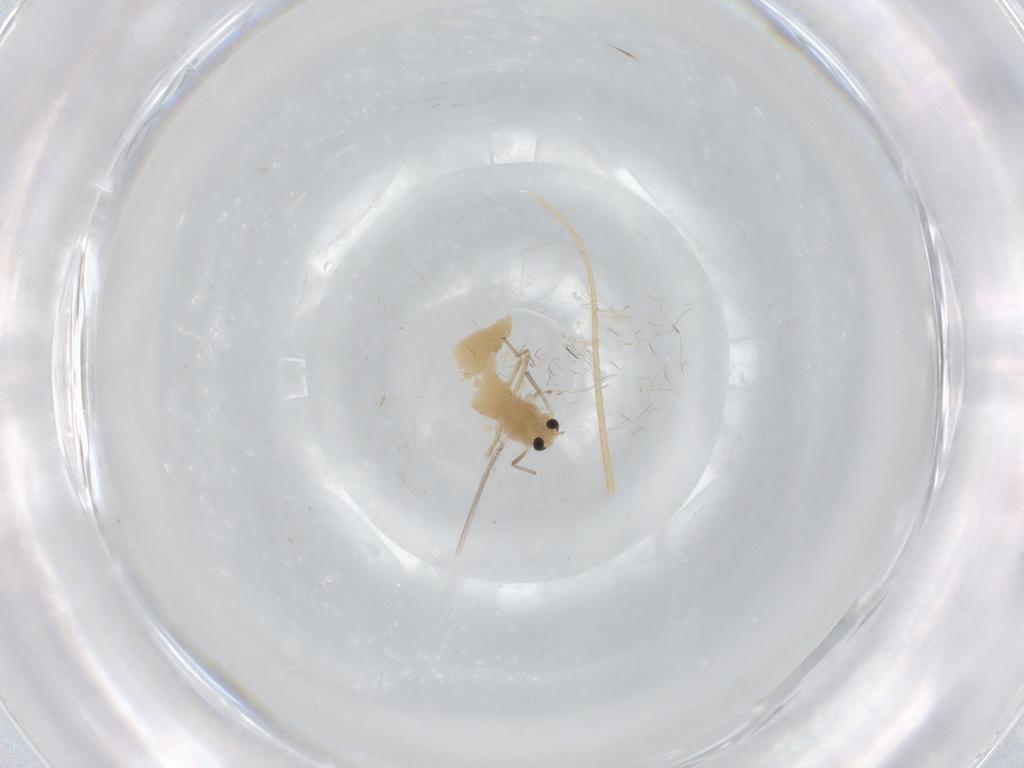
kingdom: Animalia
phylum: Arthropoda
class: Insecta
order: Diptera
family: Chironomidae
